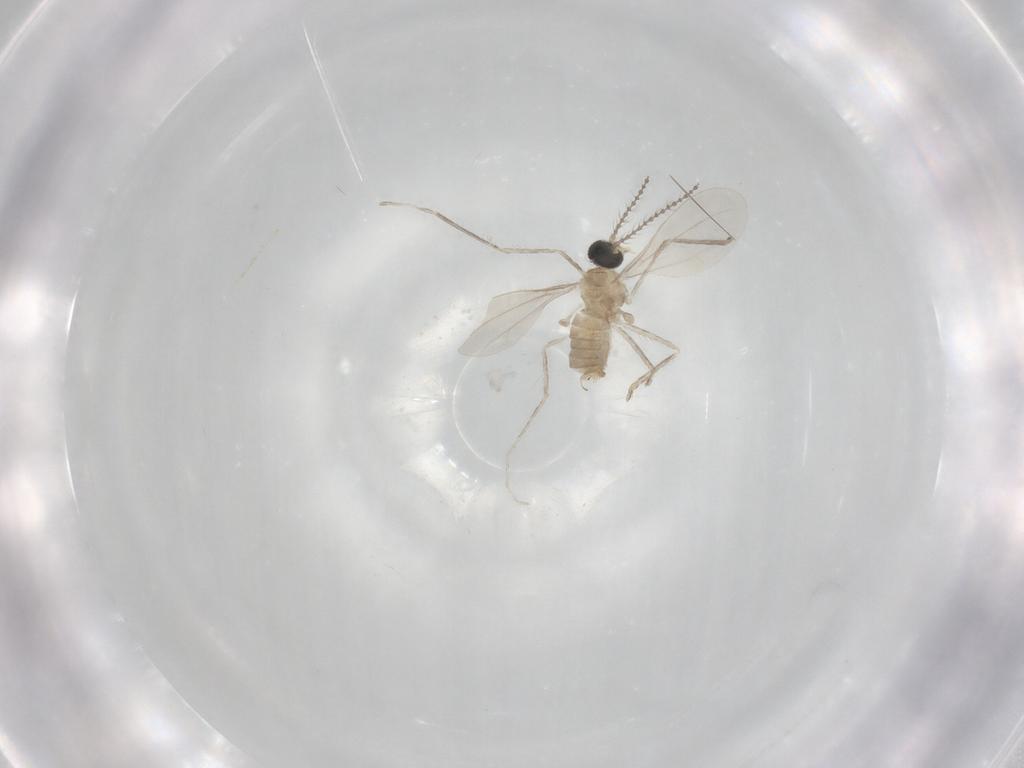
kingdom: Animalia
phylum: Arthropoda
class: Insecta
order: Diptera
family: Cecidomyiidae
